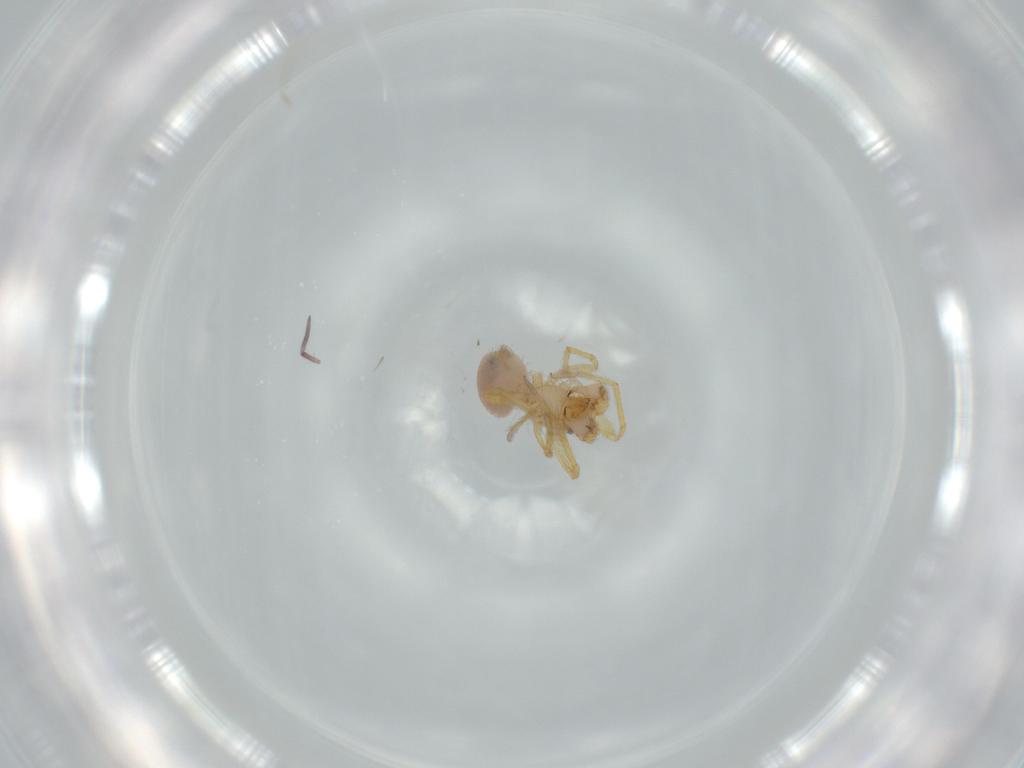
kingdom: Animalia
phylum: Arthropoda
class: Arachnida
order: Araneae
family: Oonopidae
